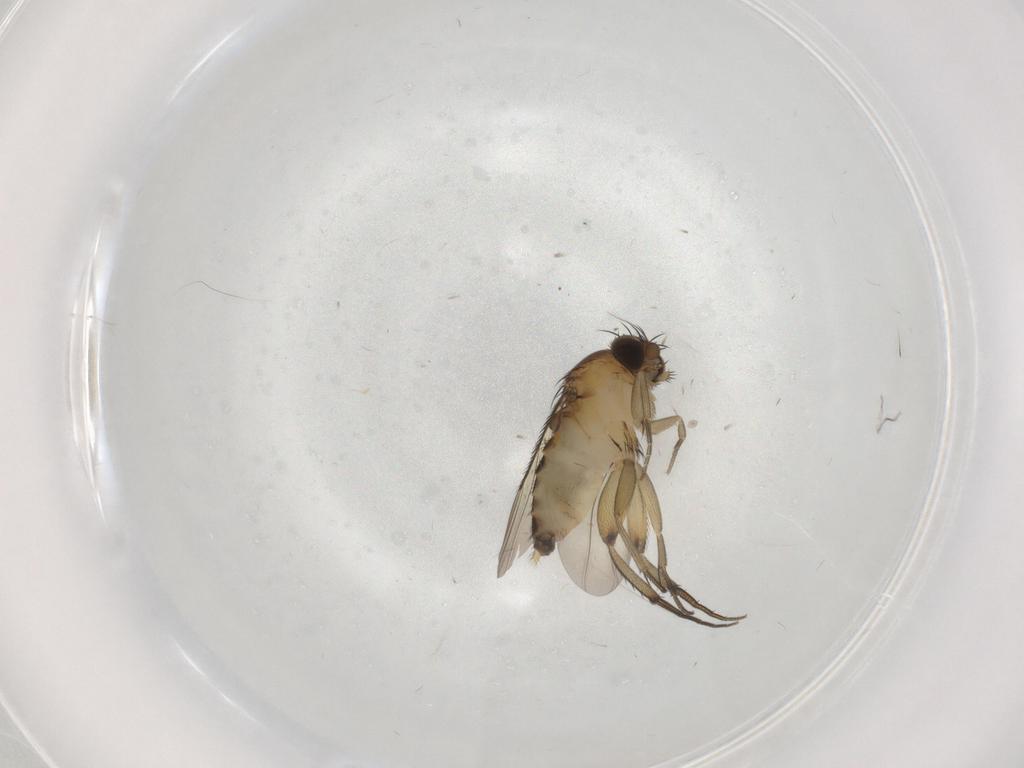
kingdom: Animalia
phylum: Arthropoda
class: Insecta
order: Diptera
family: Phoridae
